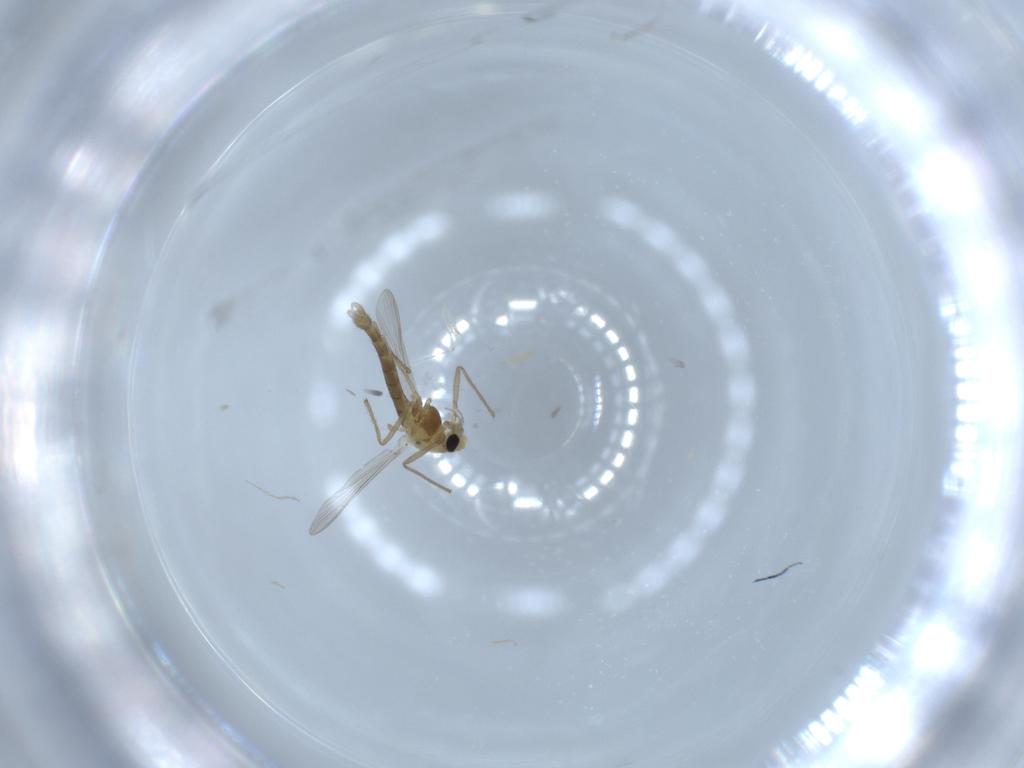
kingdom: Animalia
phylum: Arthropoda
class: Insecta
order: Diptera
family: Chironomidae
